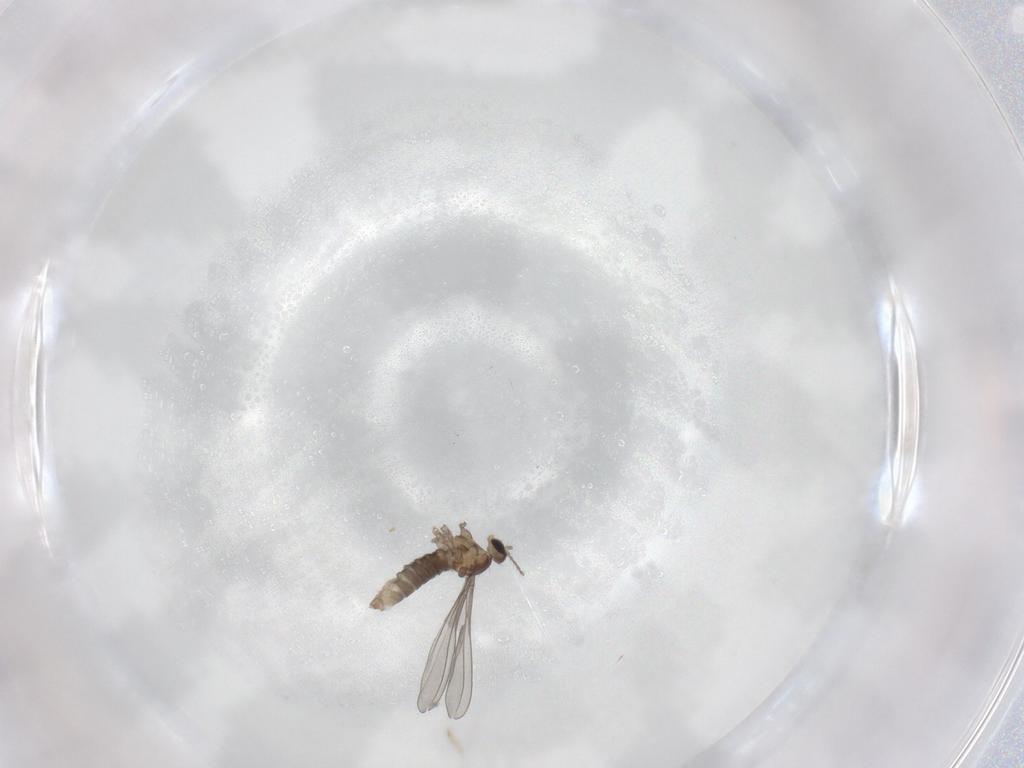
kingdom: Animalia
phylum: Arthropoda
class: Insecta
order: Diptera
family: Cecidomyiidae
